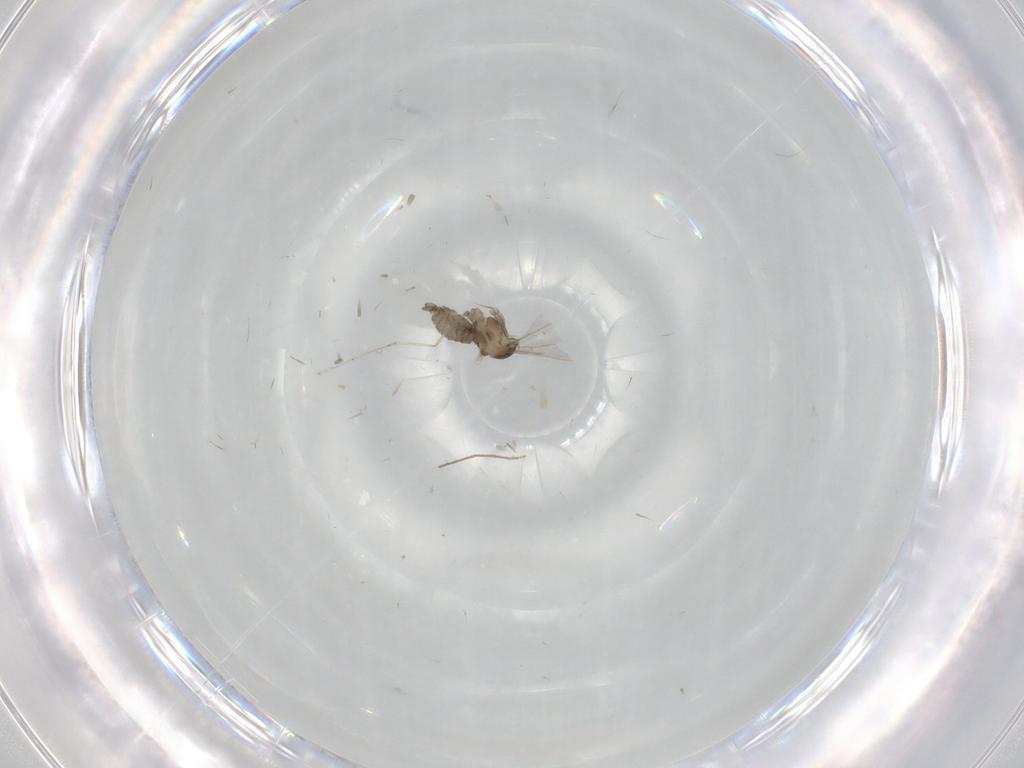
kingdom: Animalia
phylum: Arthropoda
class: Insecta
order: Diptera
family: Cecidomyiidae
